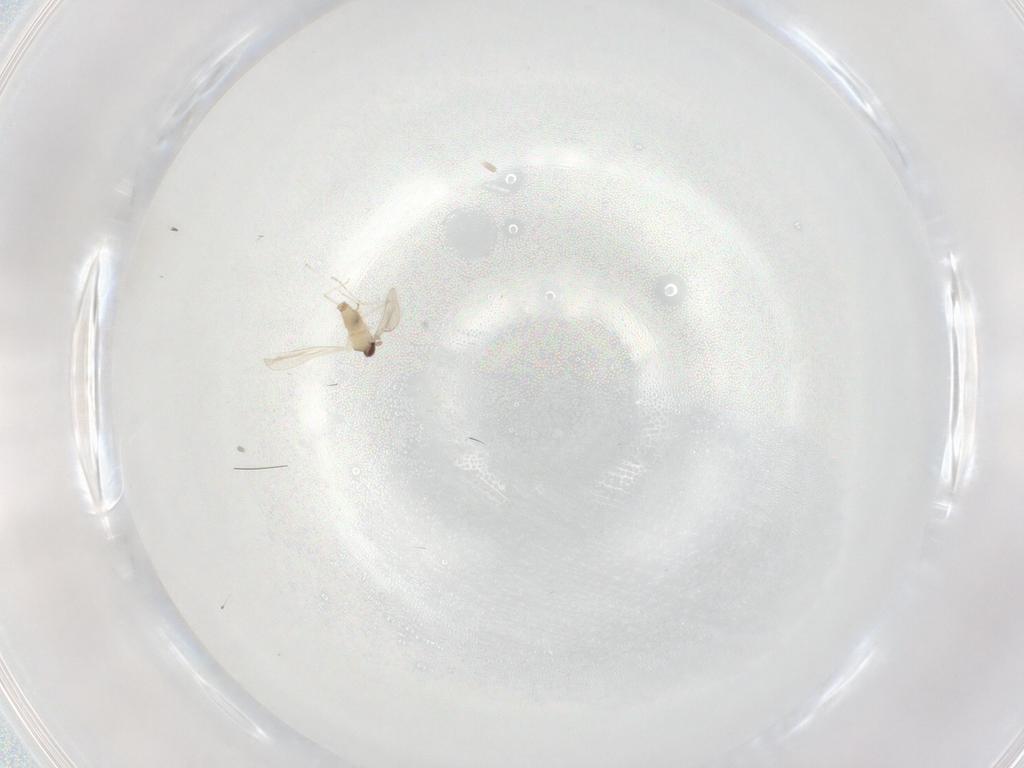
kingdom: Animalia
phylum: Arthropoda
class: Insecta
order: Diptera
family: Cecidomyiidae
